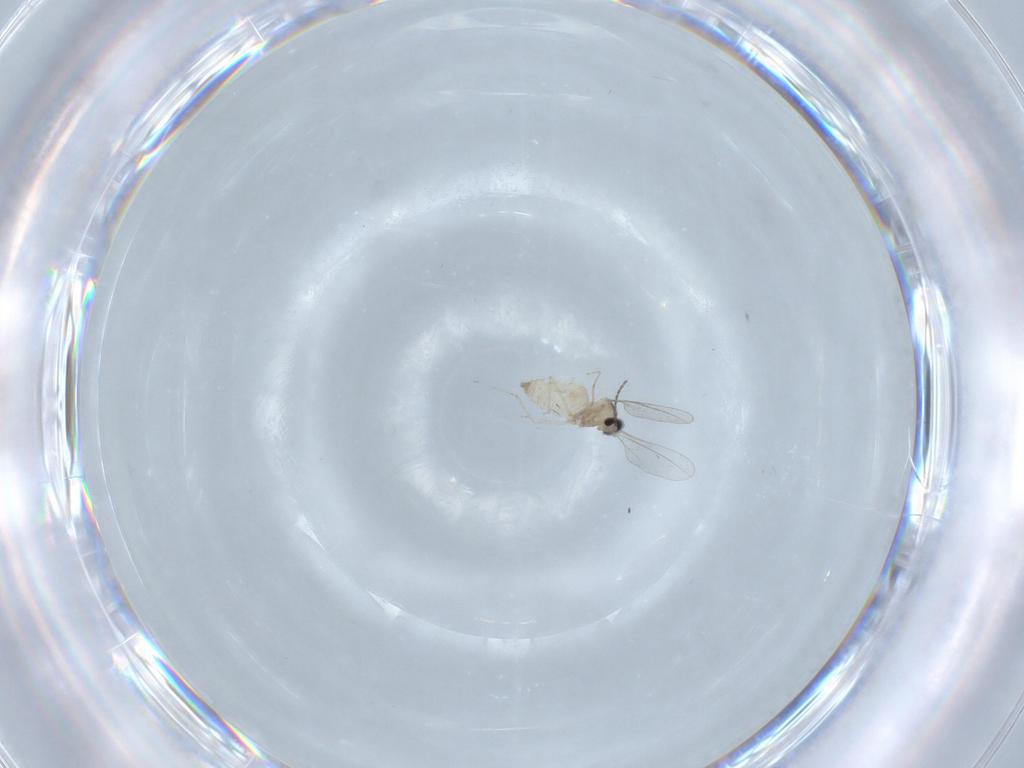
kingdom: Animalia
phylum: Arthropoda
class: Insecta
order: Diptera
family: Cecidomyiidae
